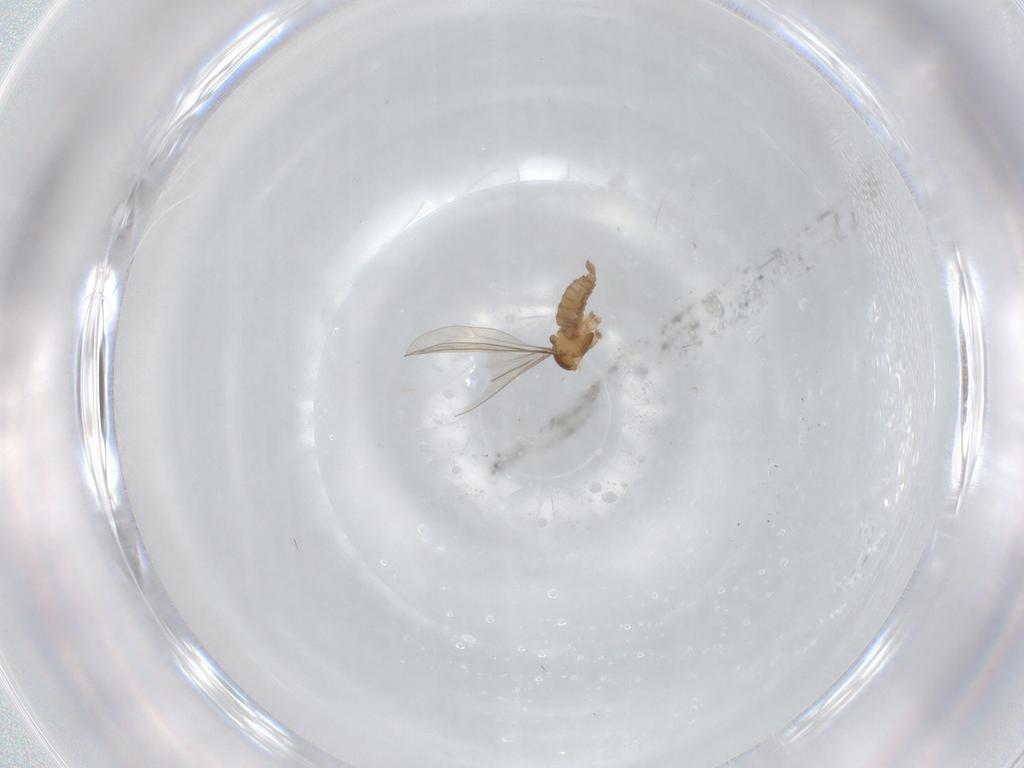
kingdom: Animalia
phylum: Arthropoda
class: Insecta
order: Diptera
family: Cecidomyiidae
